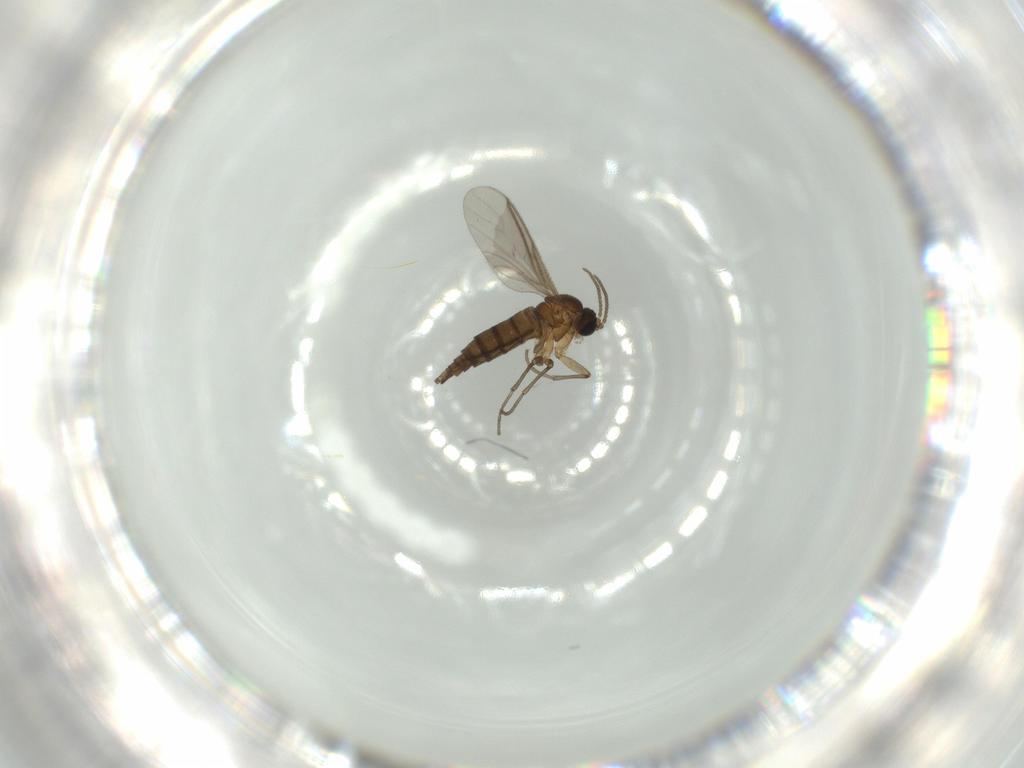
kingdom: Animalia
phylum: Arthropoda
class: Insecta
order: Diptera
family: Sciaridae
